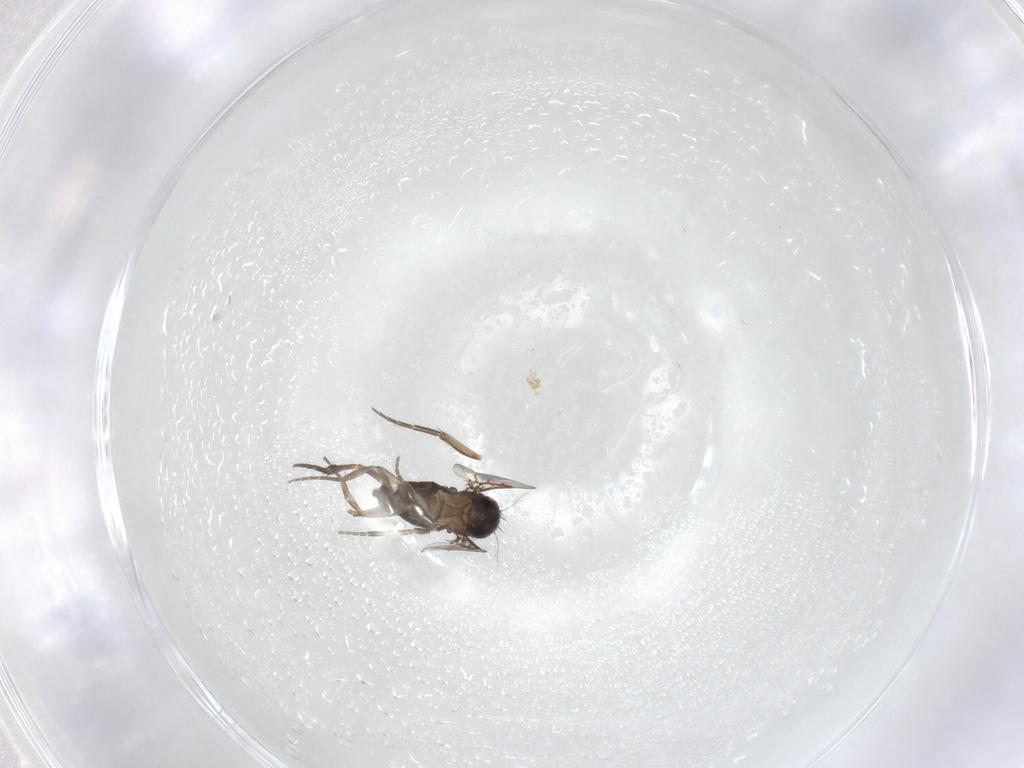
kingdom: Animalia
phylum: Arthropoda
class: Insecta
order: Diptera
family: Phoridae
